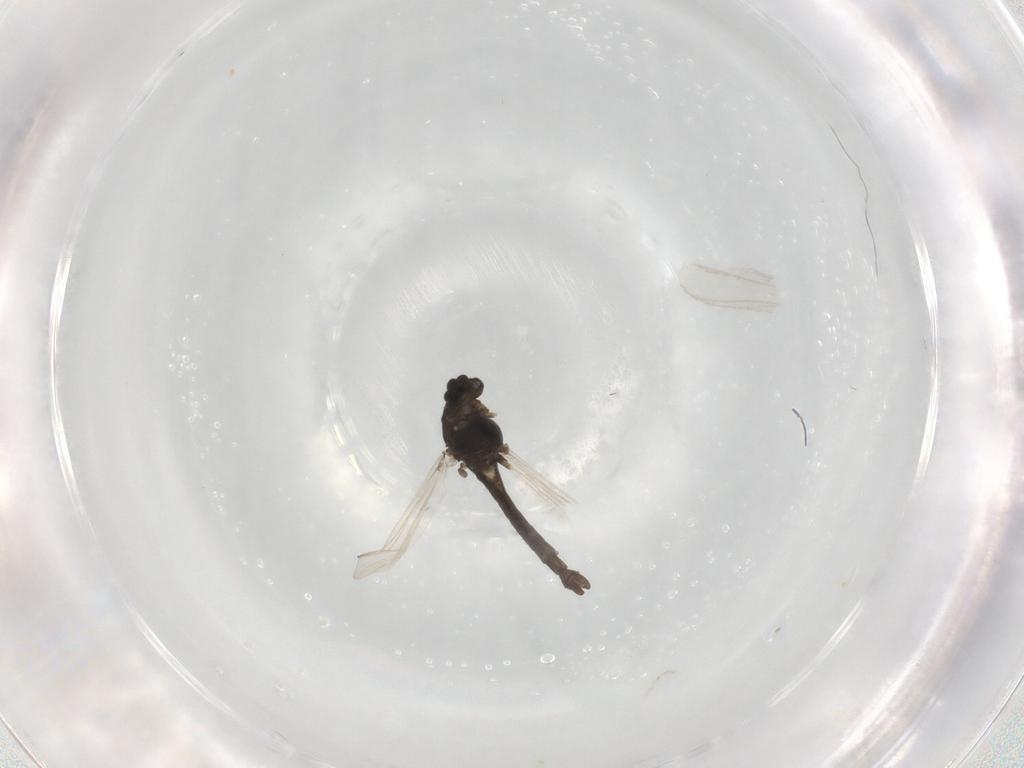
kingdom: Animalia
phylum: Arthropoda
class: Insecta
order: Diptera
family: Chironomidae
